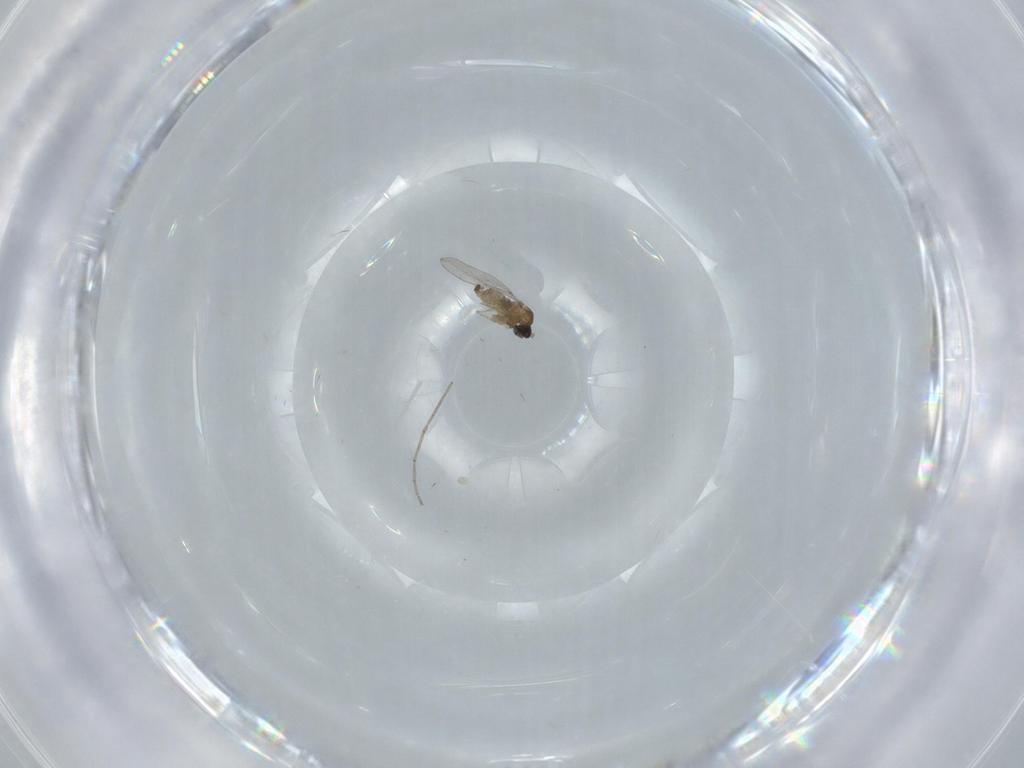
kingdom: Animalia
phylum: Arthropoda
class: Insecta
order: Diptera
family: Cecidomyiidae
